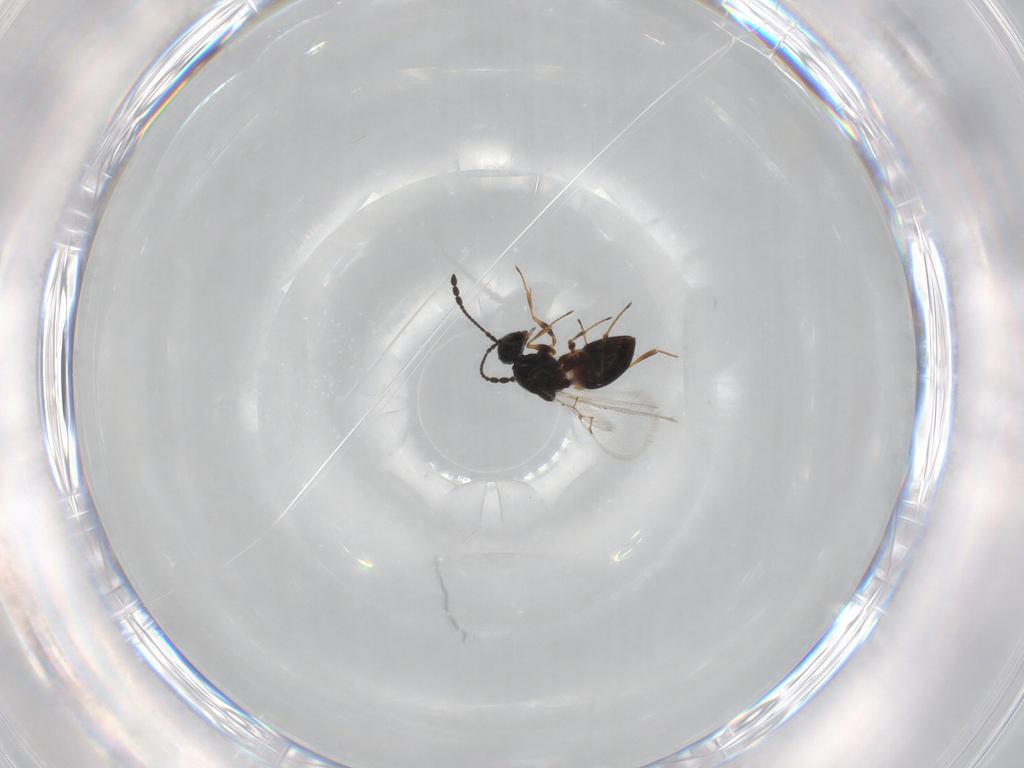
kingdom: Animalia
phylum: Arthropoda
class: Insecta
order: Hymenoptera
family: Figitidae
